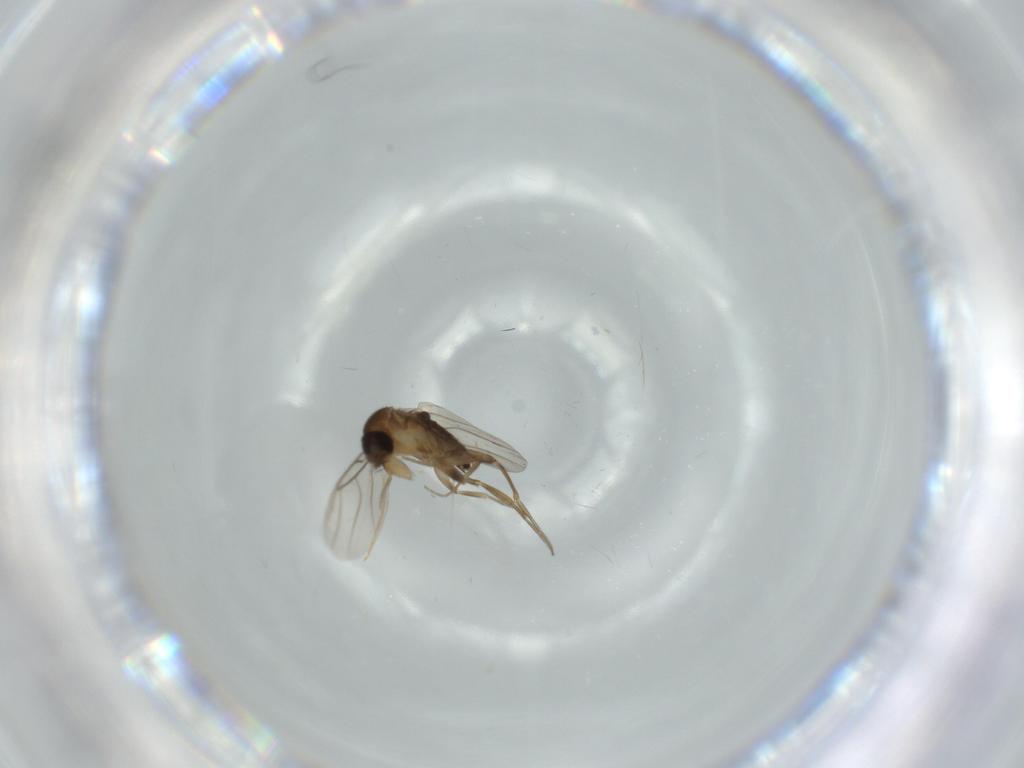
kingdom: Animalia
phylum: Arthropoda
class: Insecta
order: Diptera
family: Phoridae
